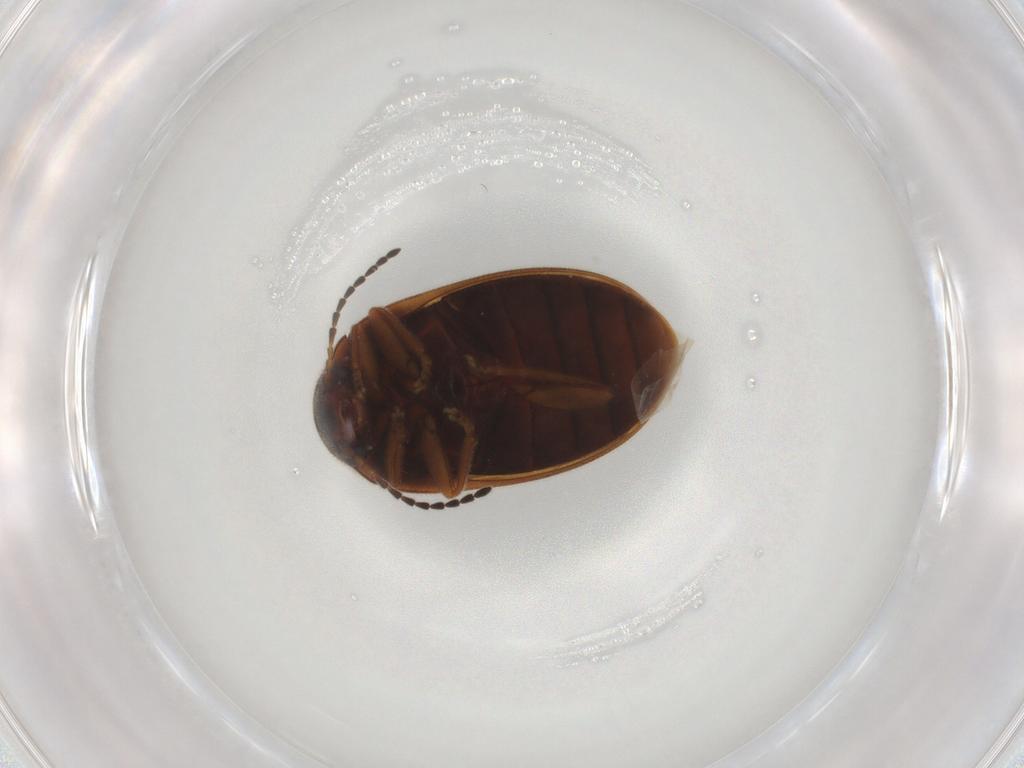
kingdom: Animalia
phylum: Arthropoda
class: Insecta
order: Coleoptera
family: Scirtidae
